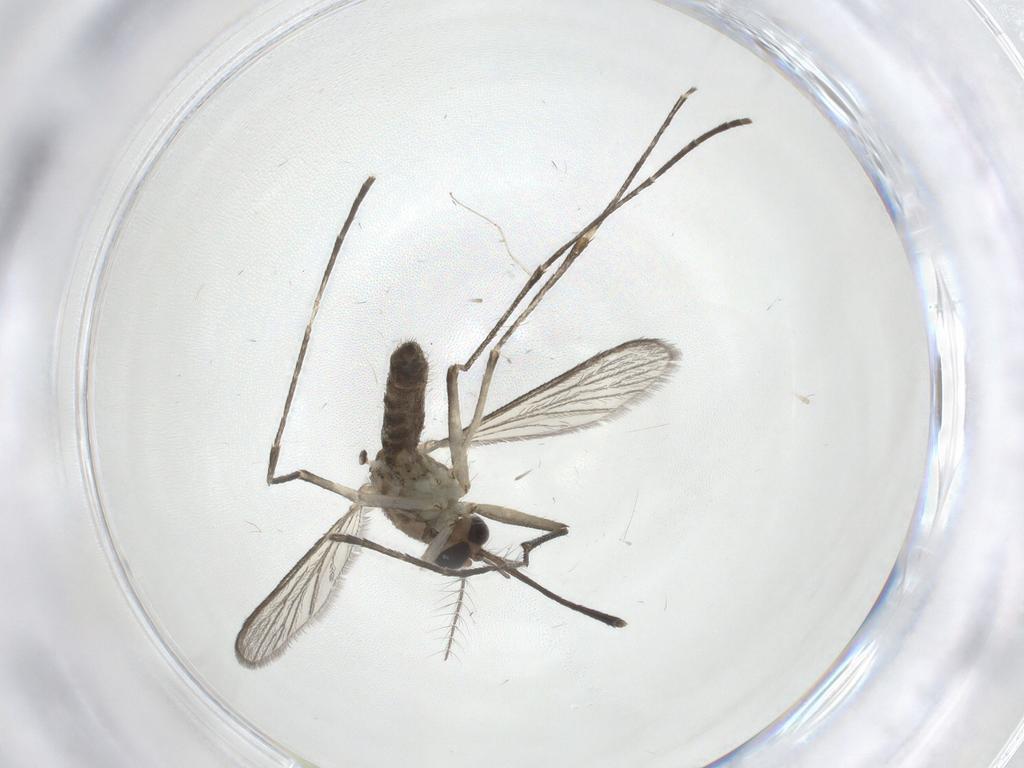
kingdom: Animalia
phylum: Arthropoda
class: Insecta
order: Diptera
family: Culicidae
